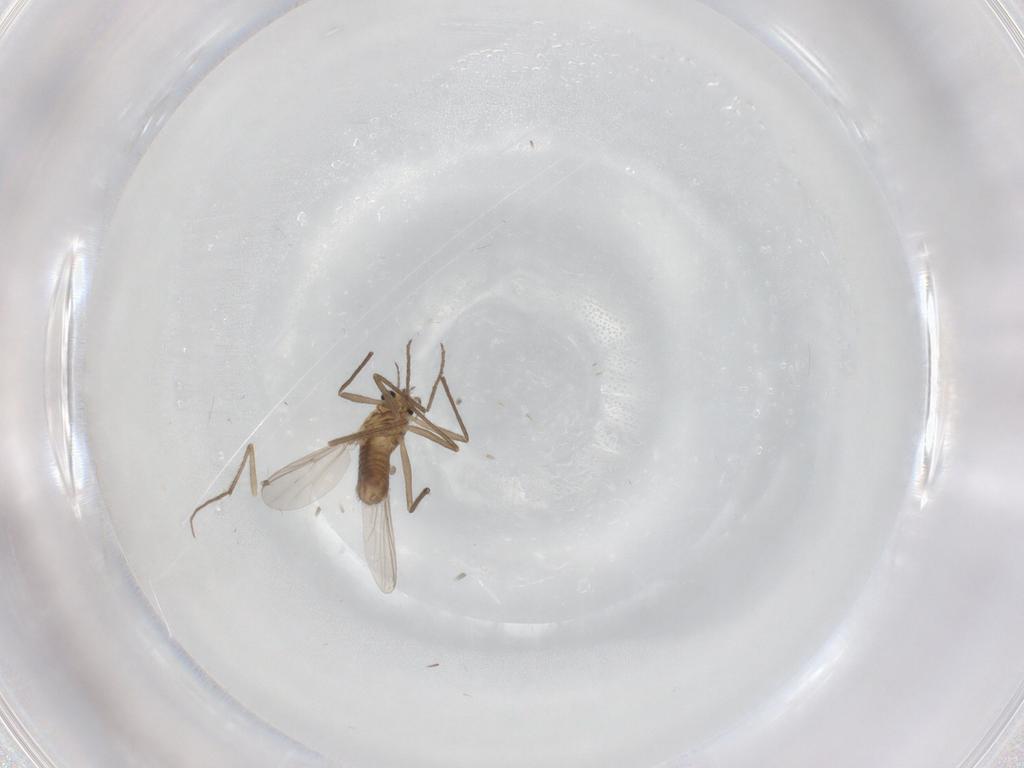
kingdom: Animalia
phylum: Arthropoda
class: Insecta
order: Diptera
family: Chironomidae
